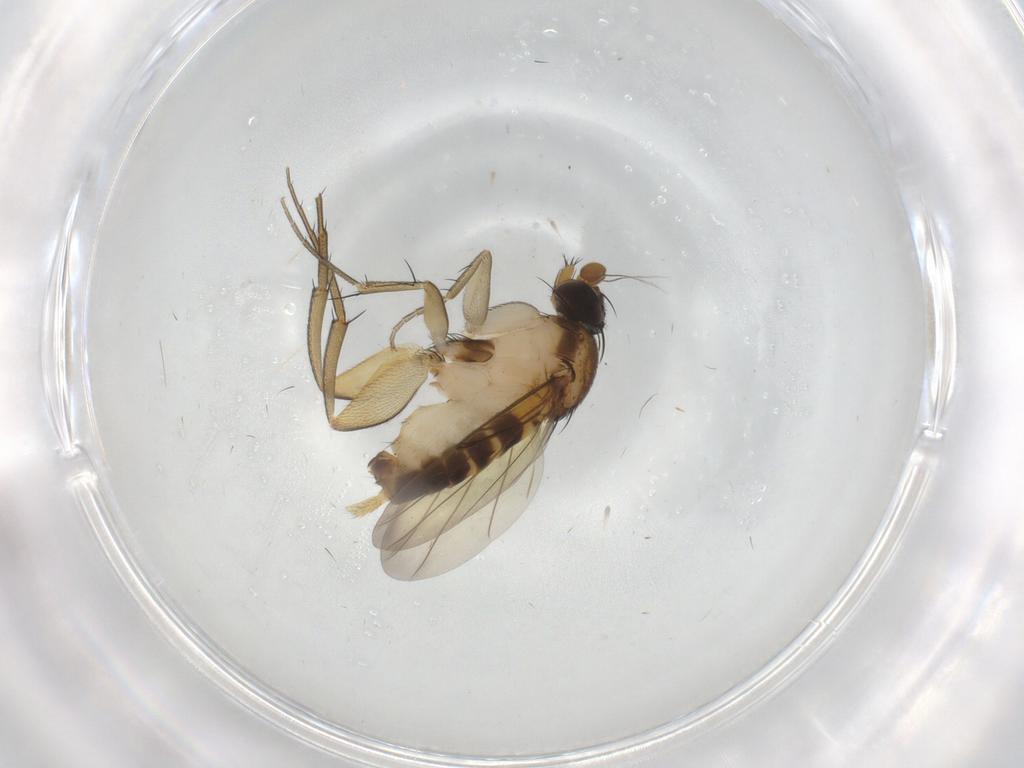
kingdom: Animalia
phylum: Arthropoda
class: Insecta
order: Diptera
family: Phoridae
